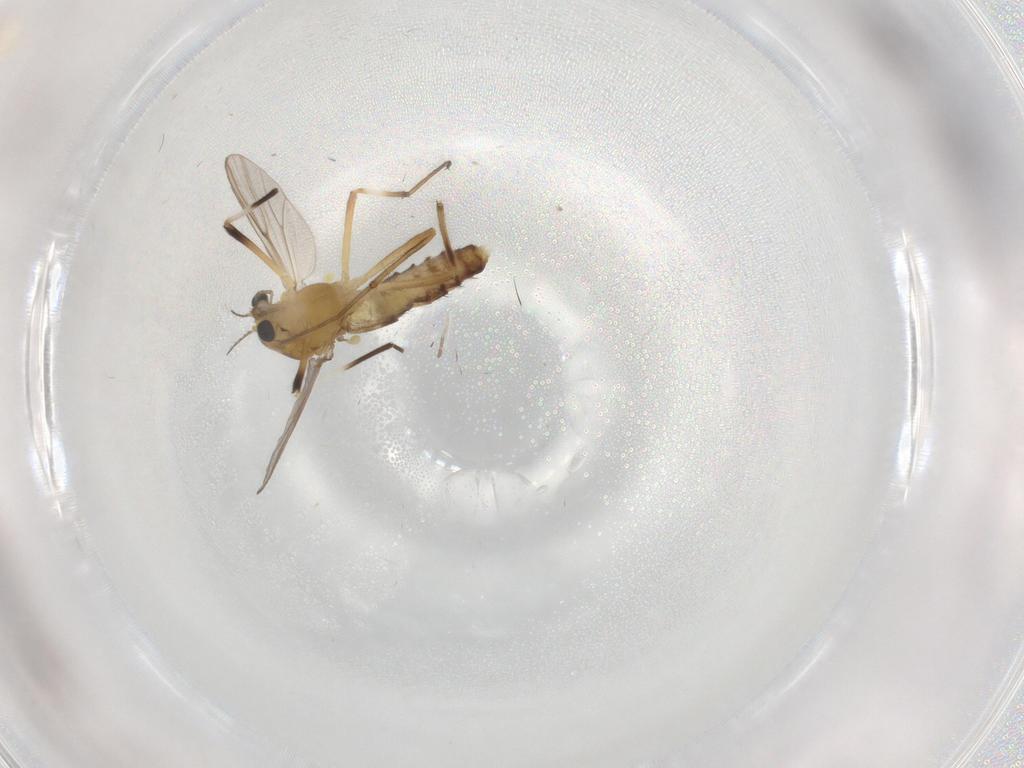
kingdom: Animalia
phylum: Arthropoda
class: Insecta
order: Diptera
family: Chironomidae
